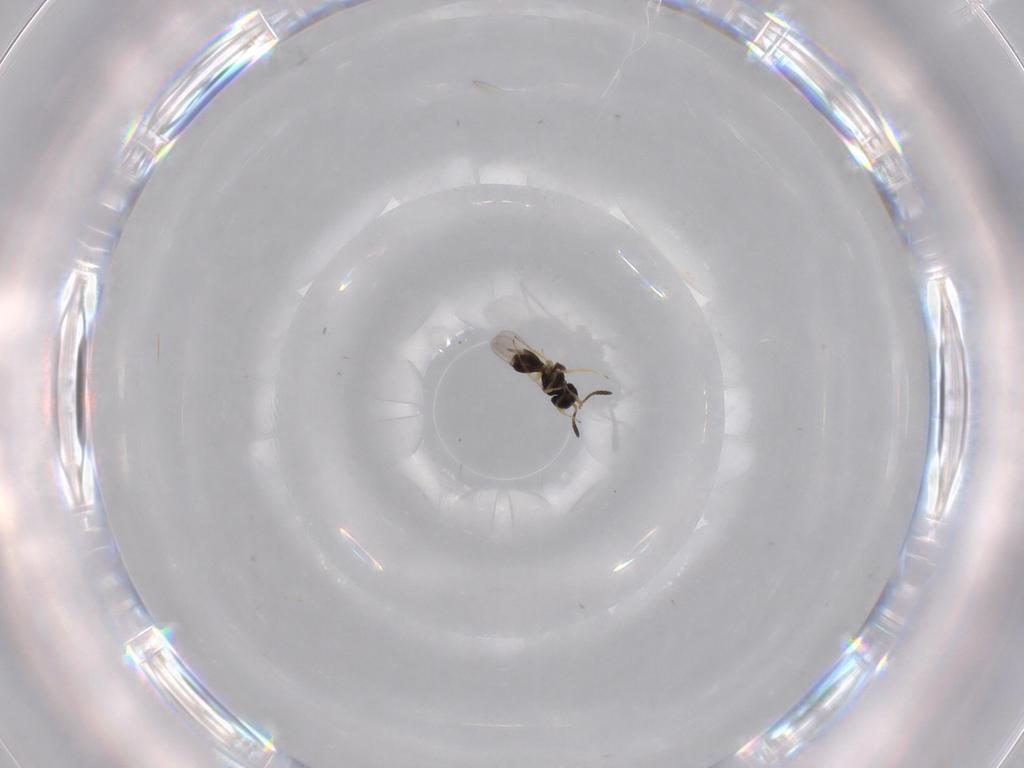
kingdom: Animalia
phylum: Arthropoda
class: Insecta
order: Hymenoptera
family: Scelionidae
